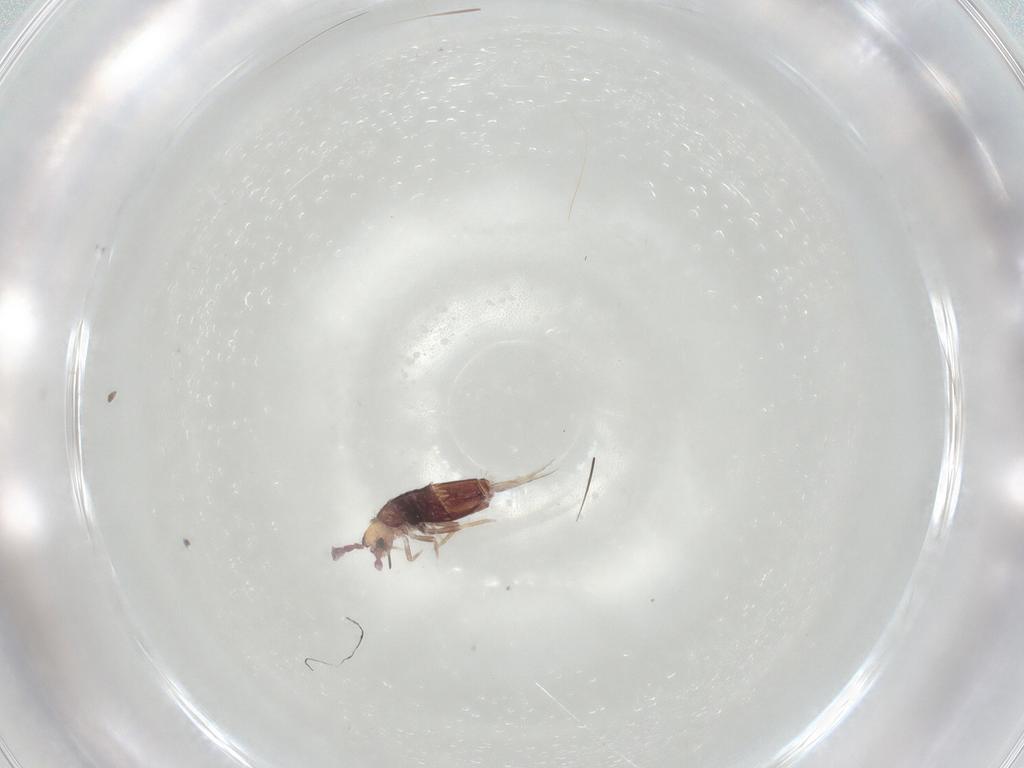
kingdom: Animalia
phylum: Arthropoda
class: Collembola
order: Entomobryomorpha
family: Entomobryidae
